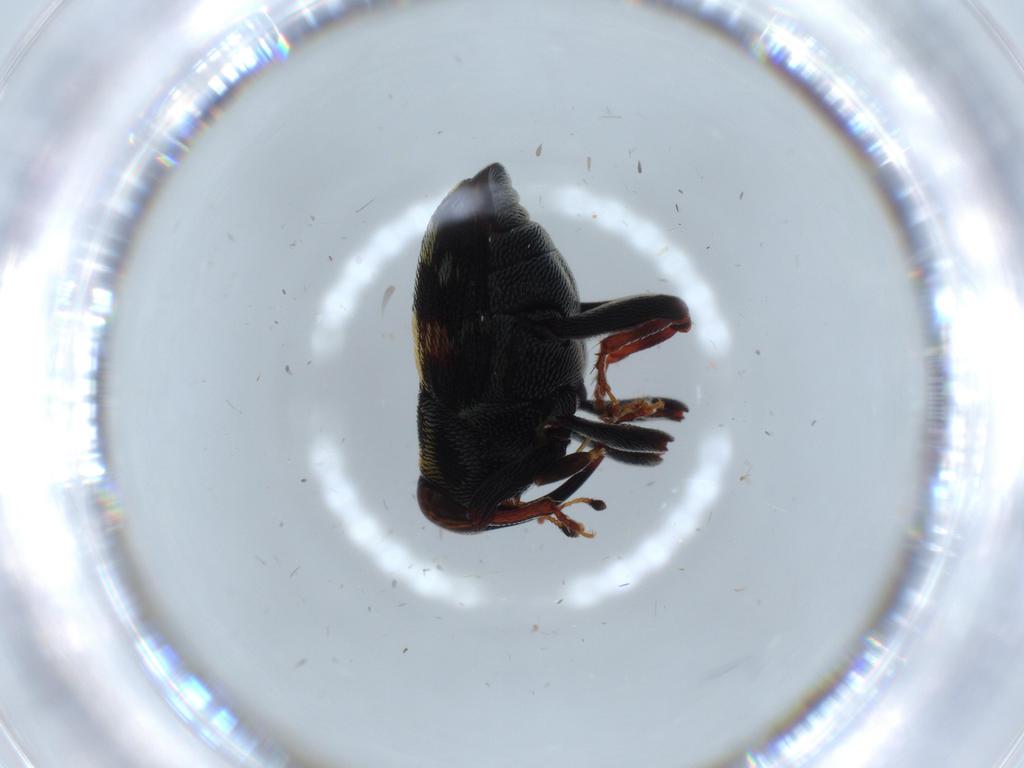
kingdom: Animalia
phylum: Arthropoda
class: Insecta
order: Coleoptera
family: Curculionidae
